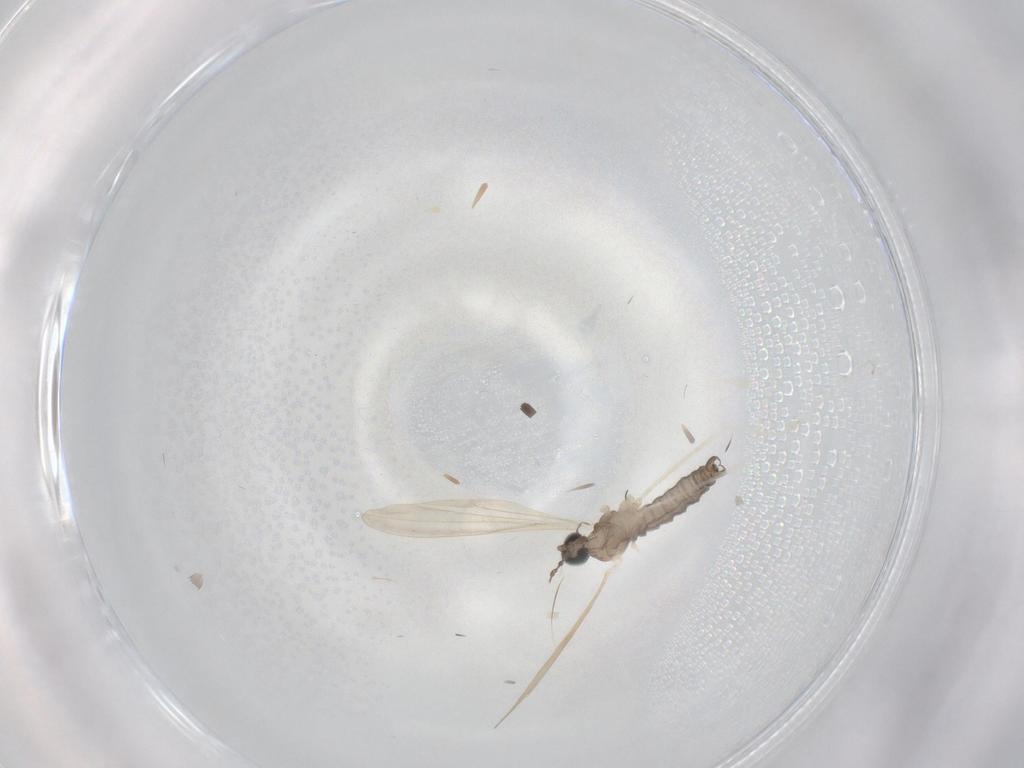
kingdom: Animalia
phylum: Arthropoda
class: Insecta
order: Diptera
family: Cecidomyiidae
